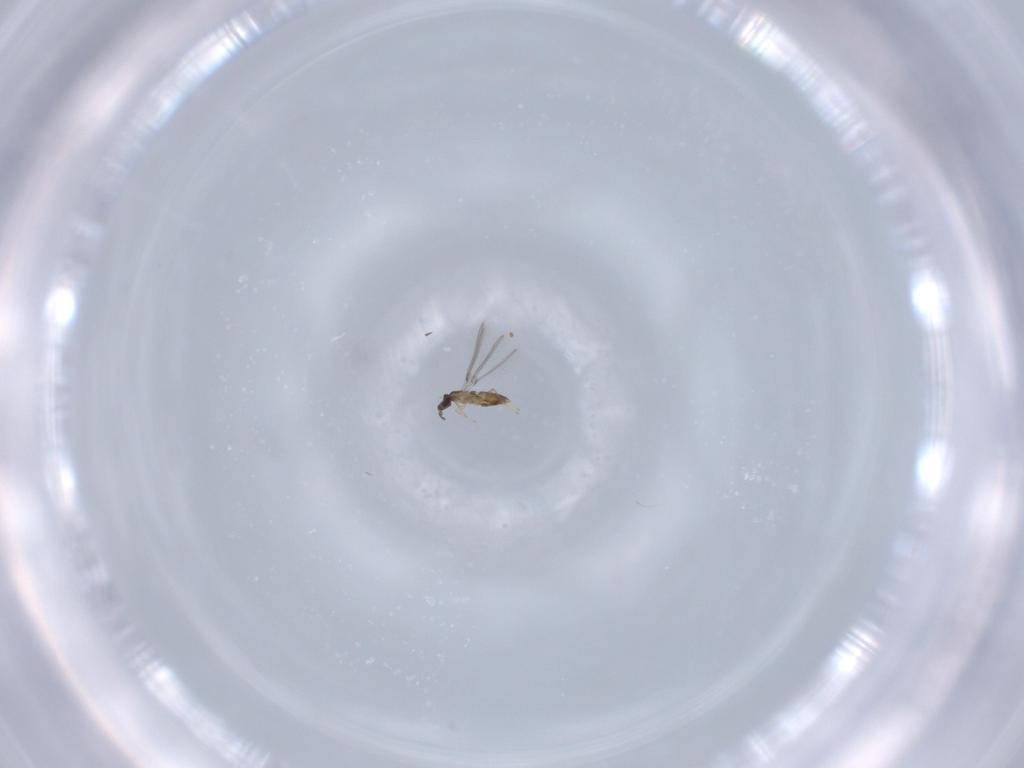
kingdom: Animalia
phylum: Arthropoda
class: Insecta
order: Hymenoptera
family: Mymaridae
